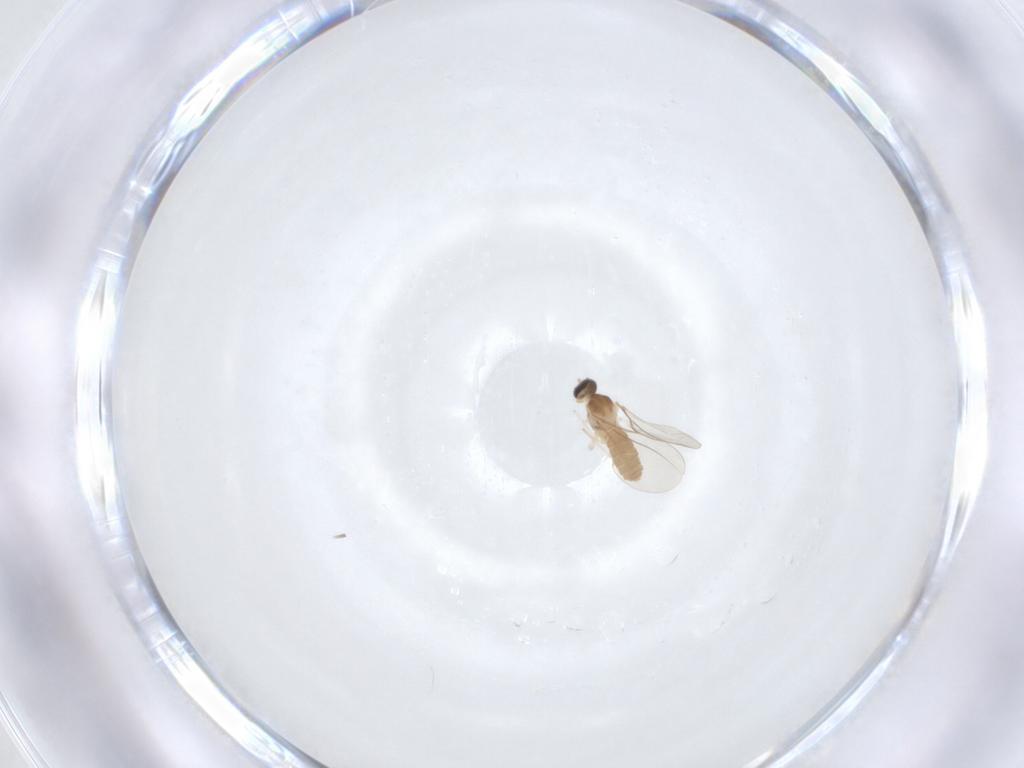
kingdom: Animalia
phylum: Arthropoda
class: Insecta
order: Diptera
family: Cecidomyiidae
